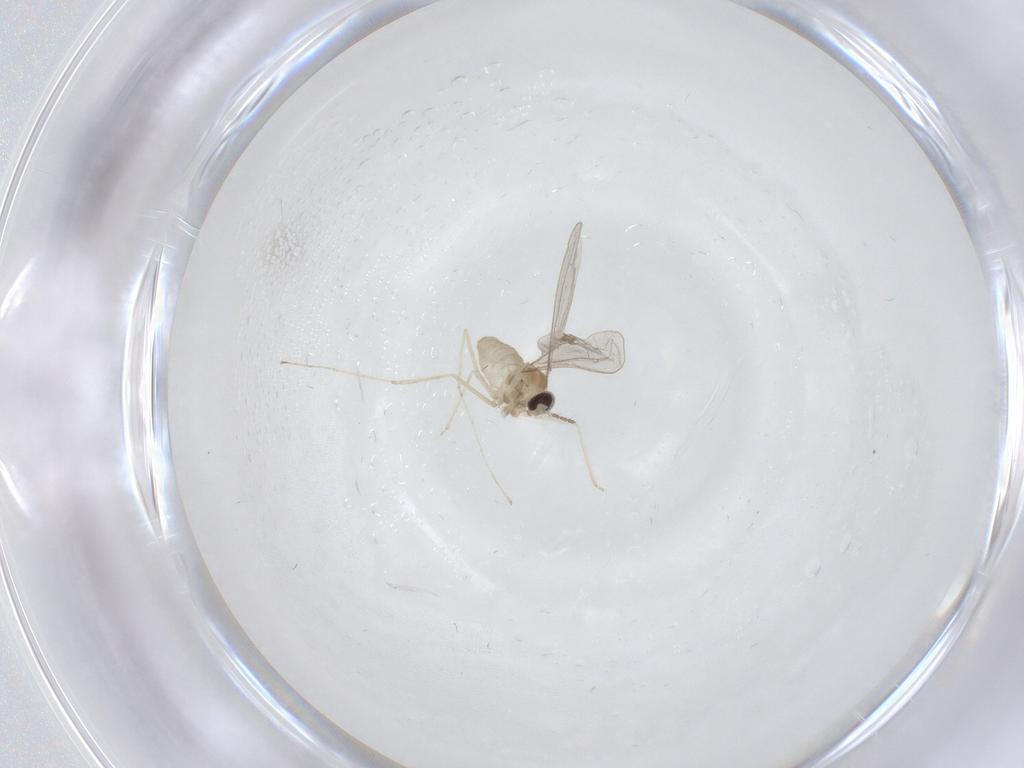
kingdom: Animalia
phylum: Arthropoda
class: Insecta
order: Diptera
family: Cecidomyiidae
